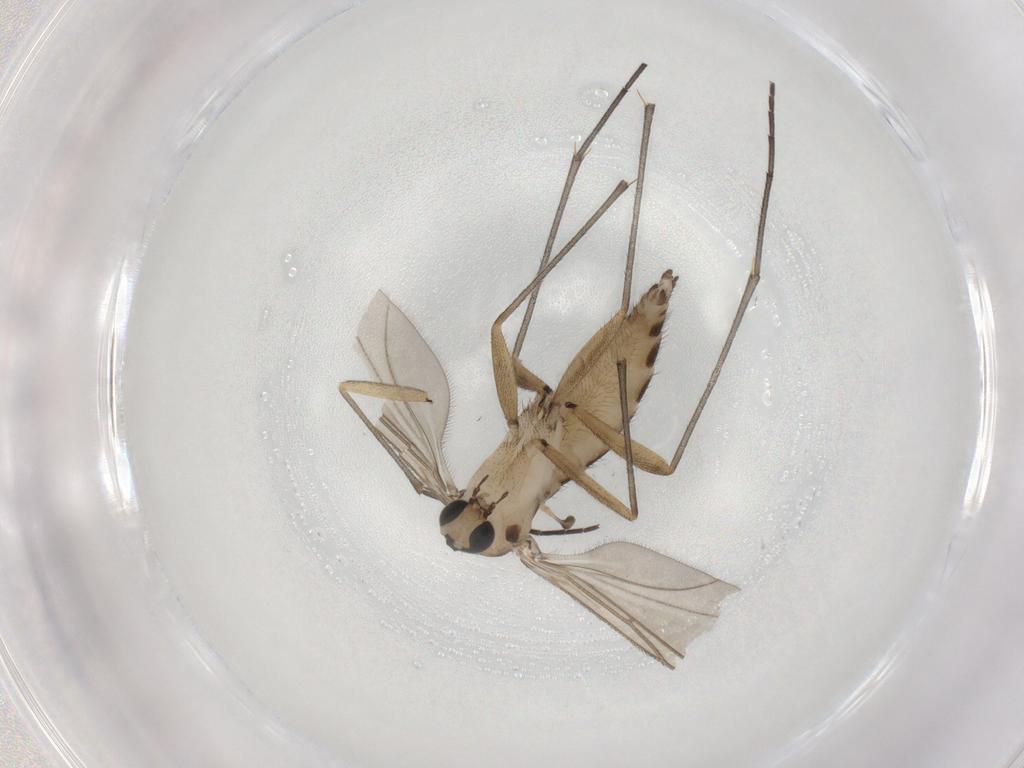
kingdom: Animalia
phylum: Arthropoda
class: Insecta
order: Diptera
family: Sciaridae
